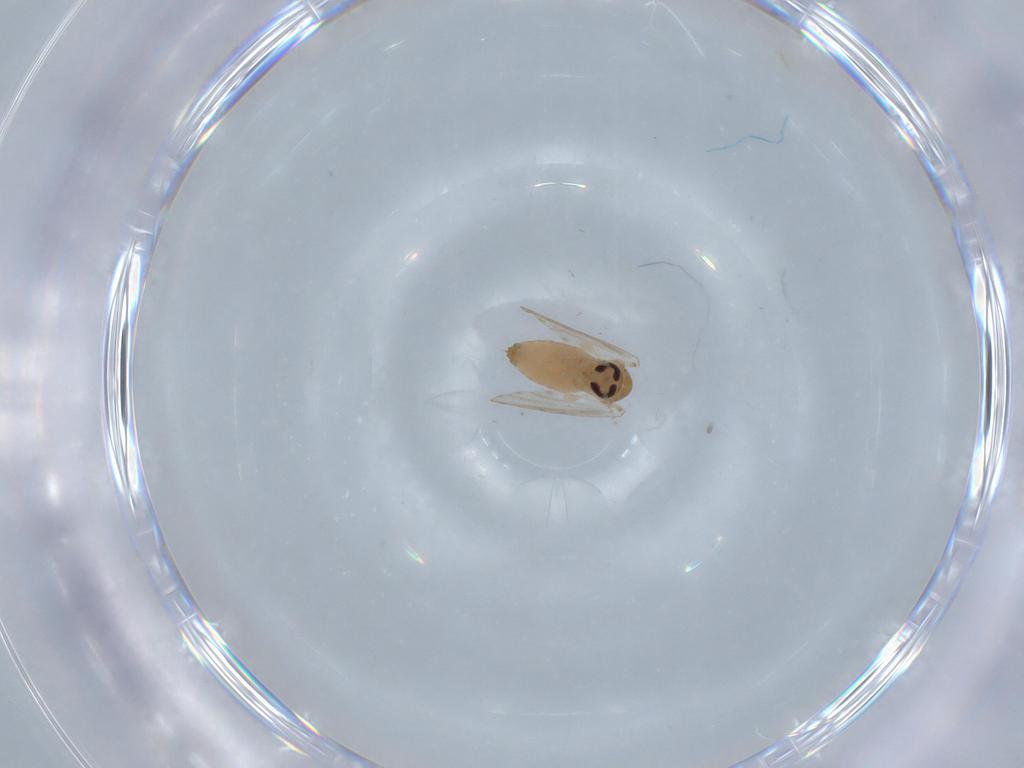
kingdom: Animalia
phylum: Arthropoda
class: Insecta
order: Diptera
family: Psychodidae
